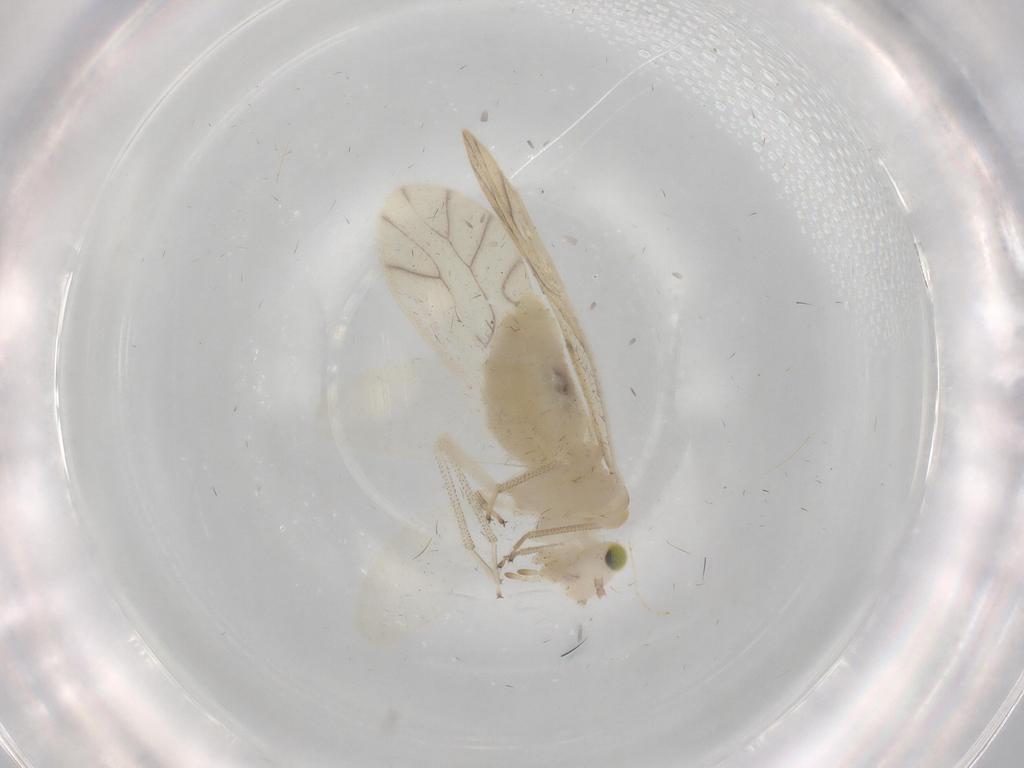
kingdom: Animalia
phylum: Arthropoda
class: Insecta
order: Psocodea
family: Caeciliusidae
